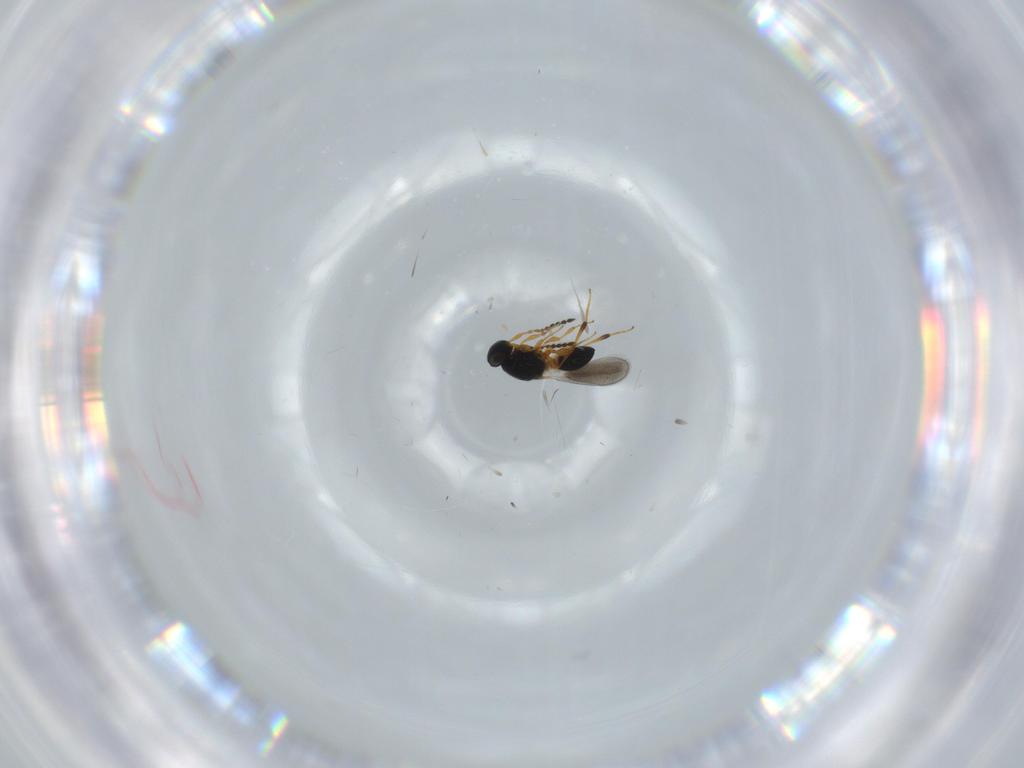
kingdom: Animalia
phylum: Arthropoda
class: Insecta
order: Hymenoptera
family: Platygastridae
